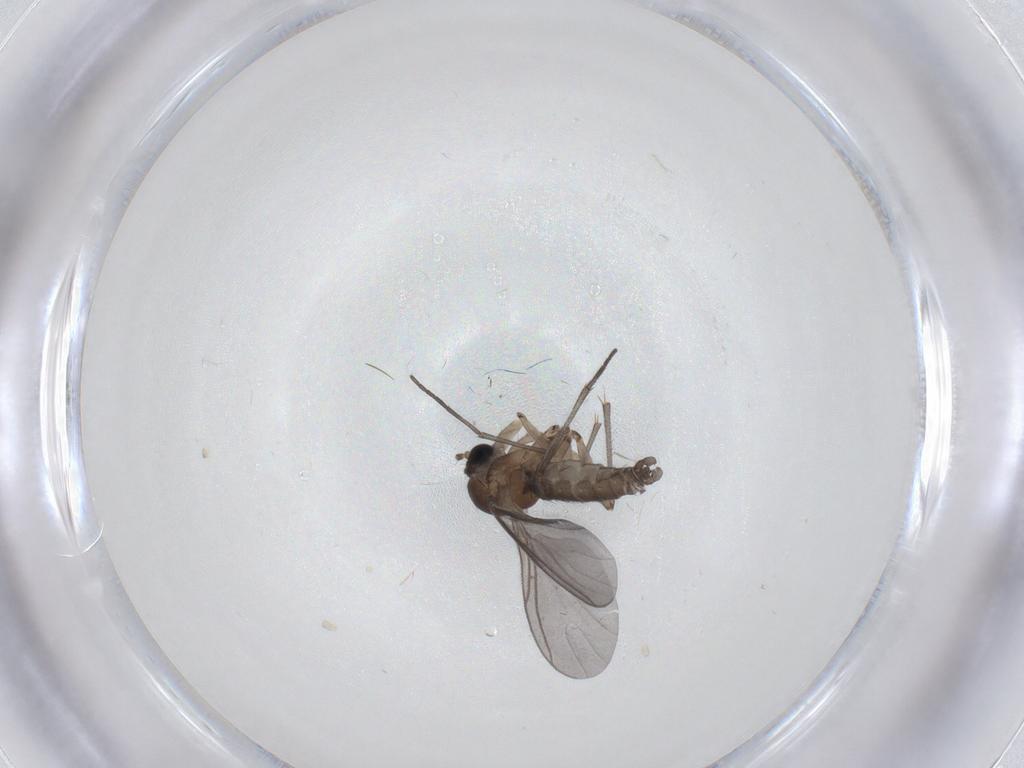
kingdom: Animalia
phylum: Arthropoda
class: Insecta
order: Diptera
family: Sciaridae
